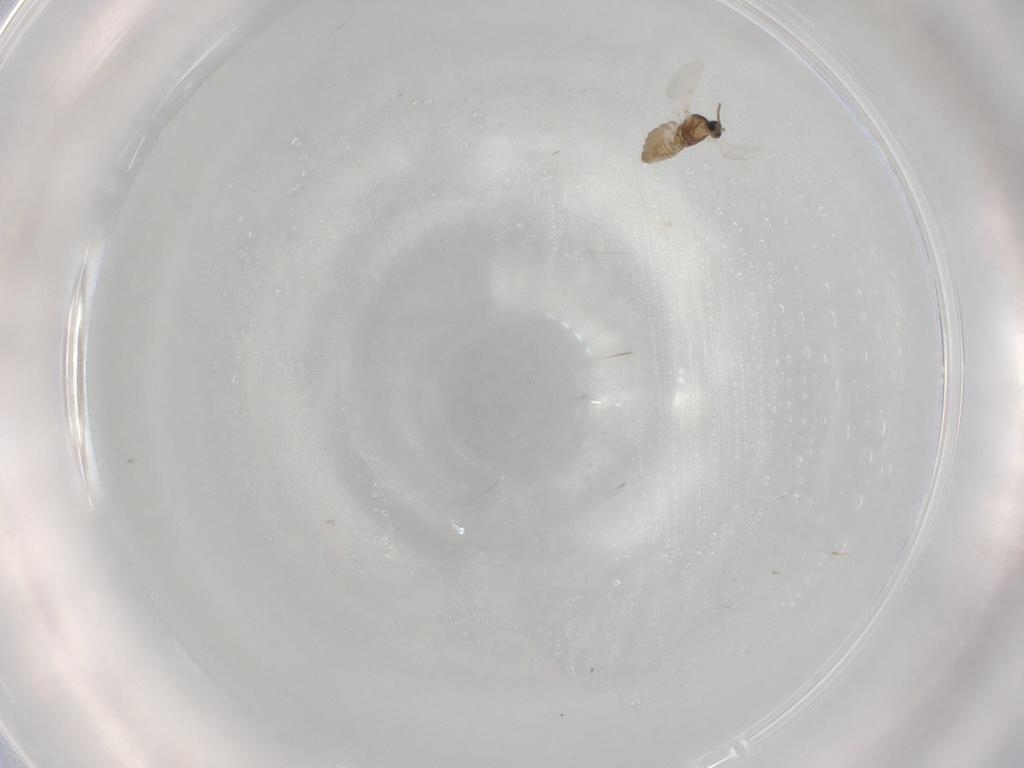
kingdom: Animalia
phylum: Arthropoda
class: Insecta
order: Diptera
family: Cecidomyiidae
